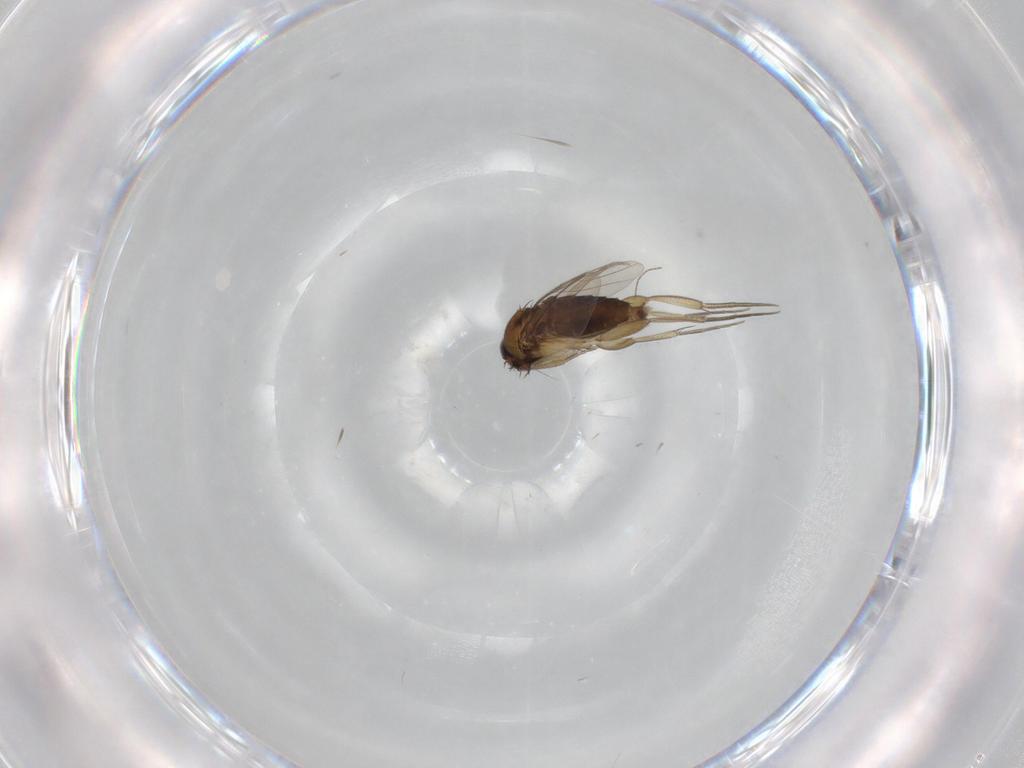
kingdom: Animalia
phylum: Arthropoda
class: Insecta
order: Diptera
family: Phoridae
